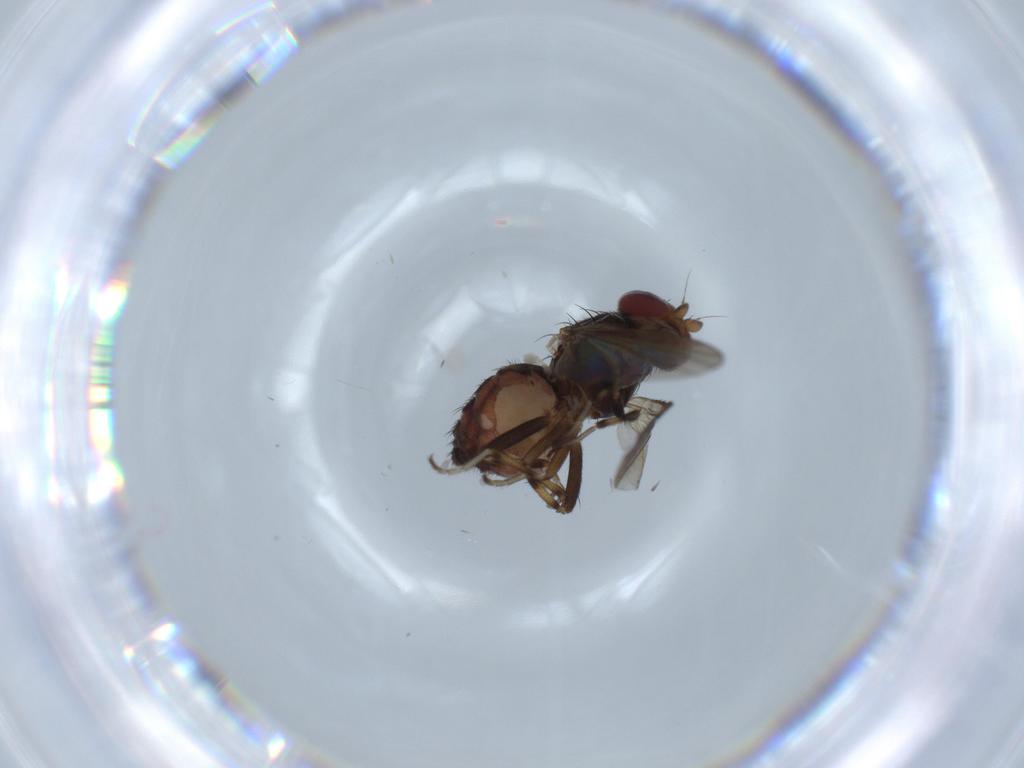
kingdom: Animalia
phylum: Arthropoda
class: Insecta
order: Diptera
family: Heleomyzidae
